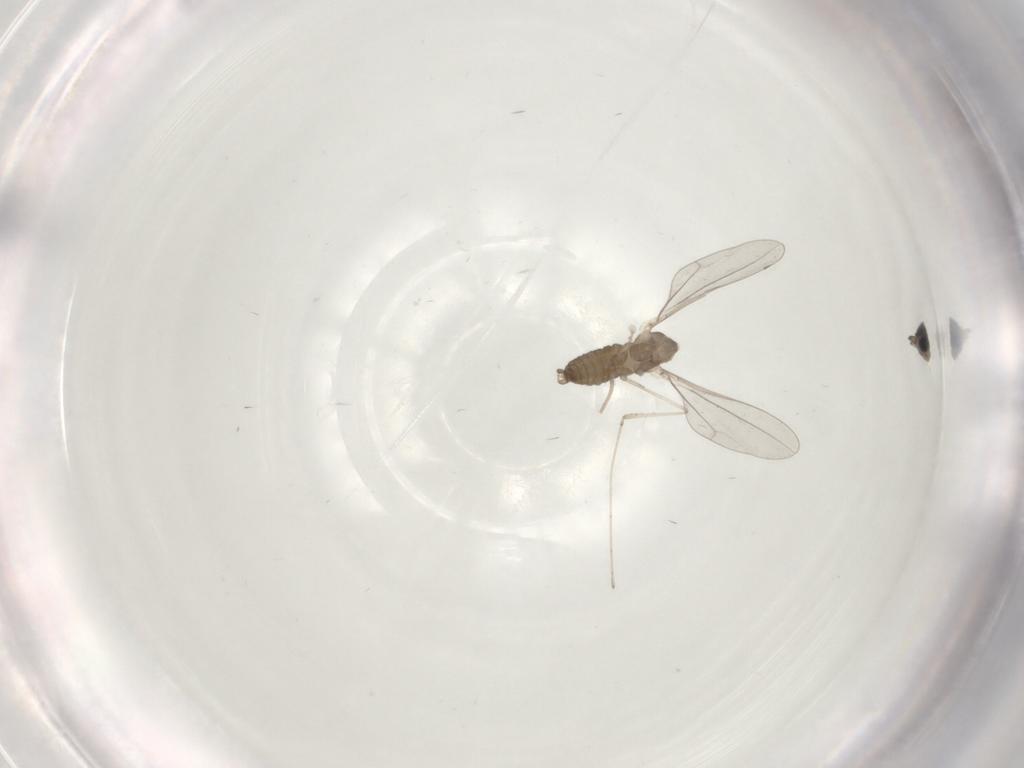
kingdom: Animalia
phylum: Arthropoda
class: Insecta
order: Diptera
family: Cecidomyiidae
